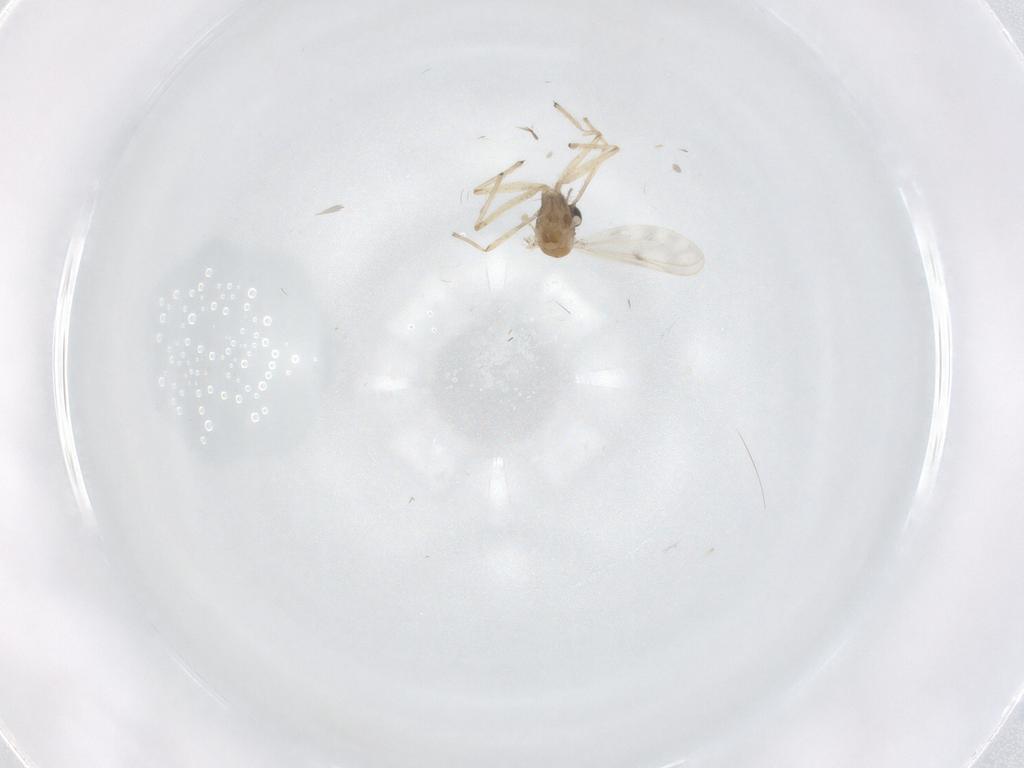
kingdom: Animalia
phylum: Arthropoda
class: Insecta
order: Diptera
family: Chironomidae
